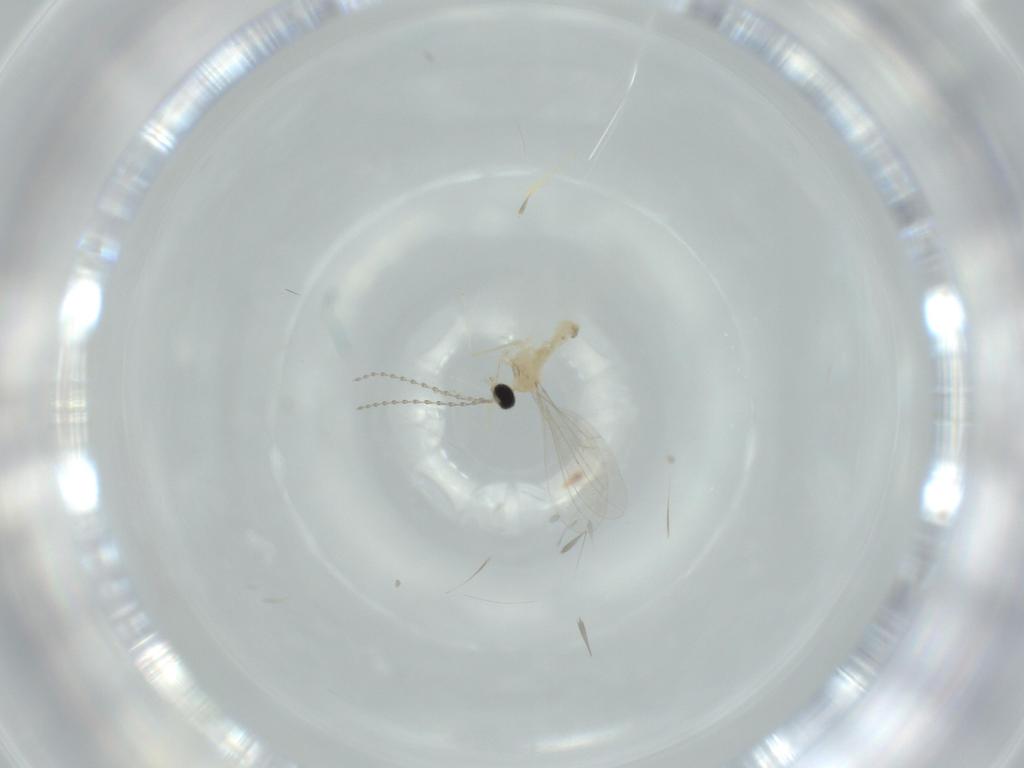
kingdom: Animalia
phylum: Arthropoda
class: Insecta
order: Diptera
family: Cecidomyiidae
